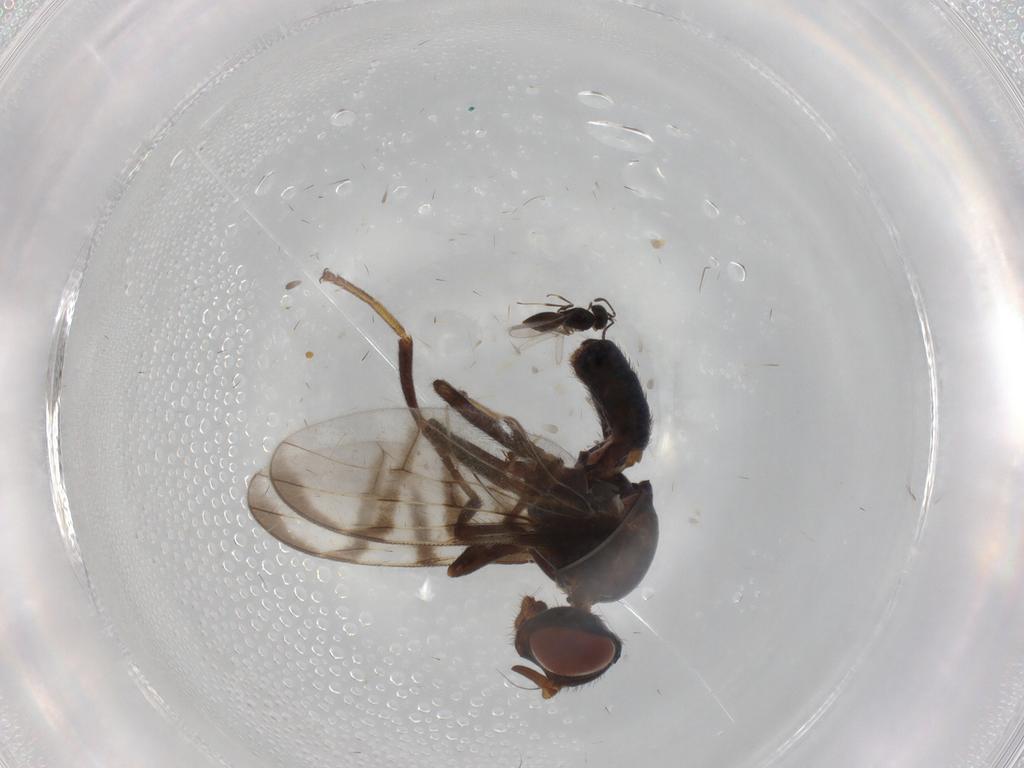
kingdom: Animalia
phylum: Arthropoda
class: Insecta
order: Hymenoptera
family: Scelionidae
